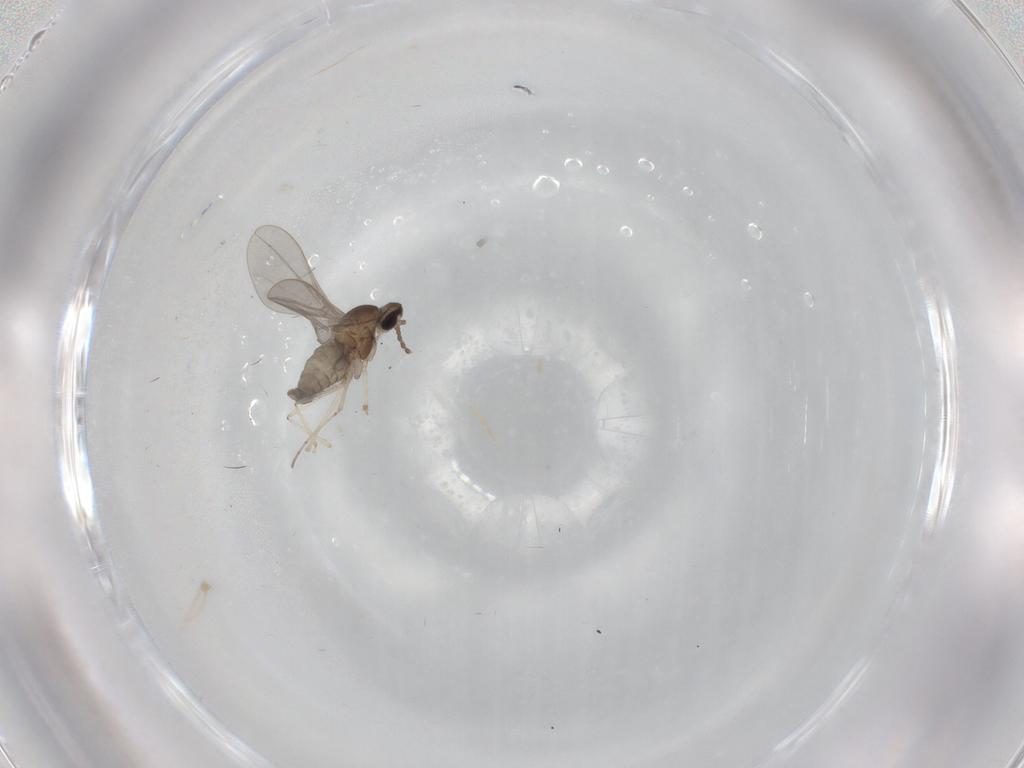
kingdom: Animalia
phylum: Arthropoda
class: Insecta
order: Diptera
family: Cecidomyiidae
